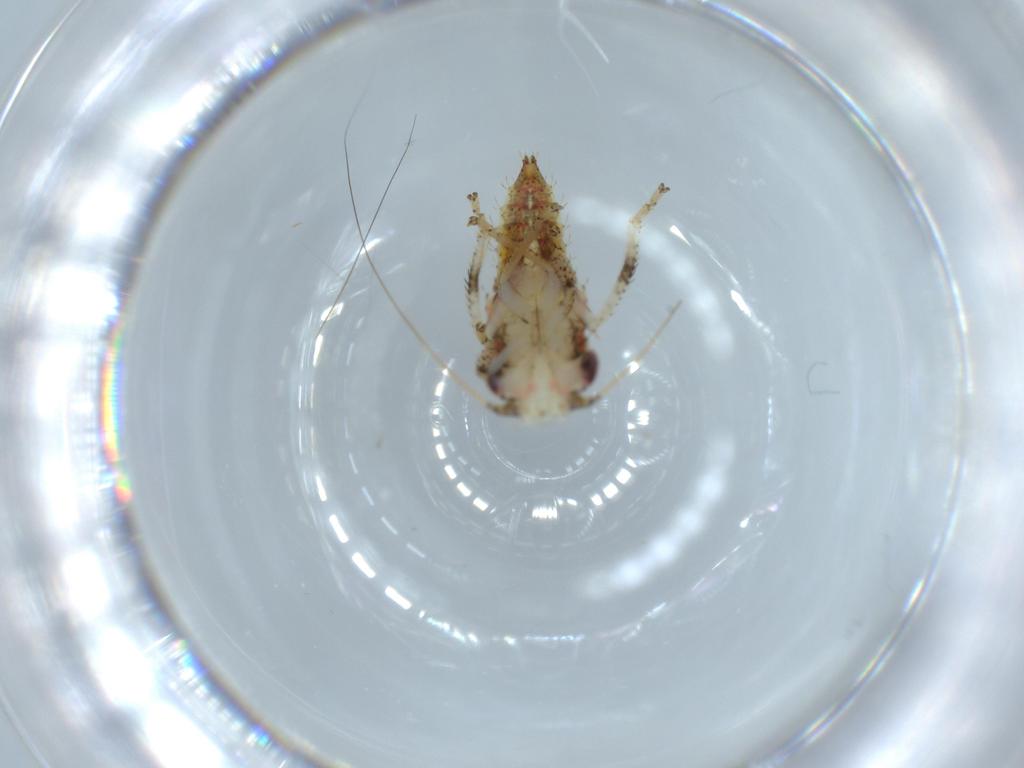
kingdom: Animalia
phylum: Arthropoda
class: Insecta
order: Hemiptera
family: Cicadellidae
